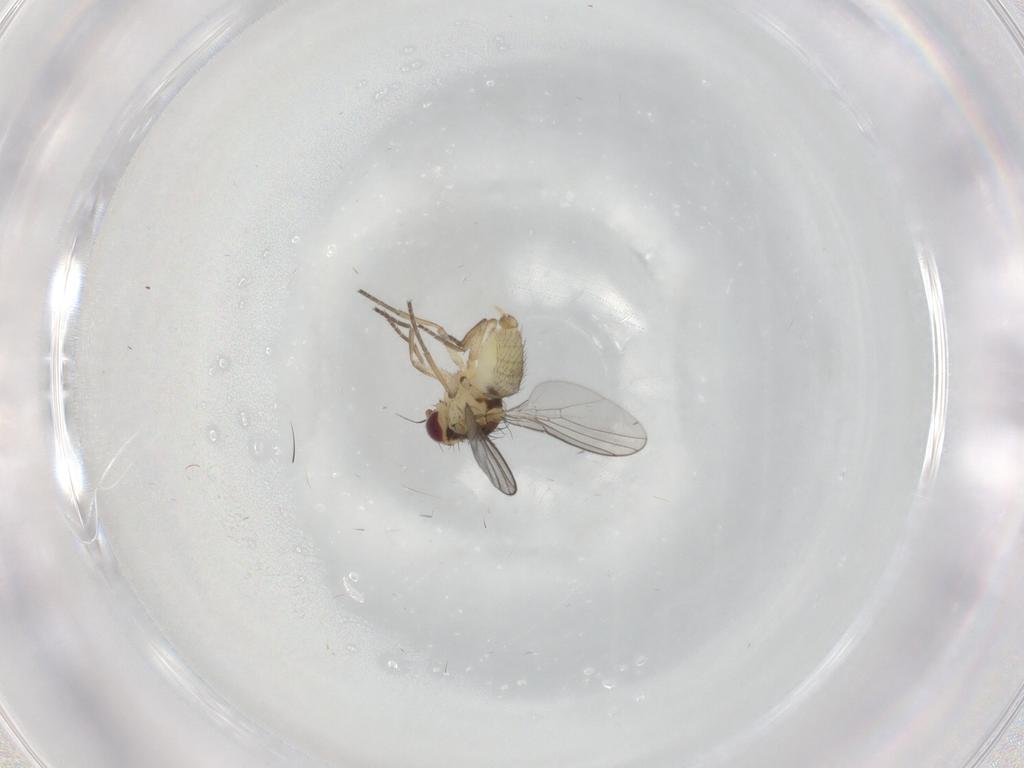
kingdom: Animalia
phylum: Arthropoda
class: Insecta
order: Diptera
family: Agromyzidae
